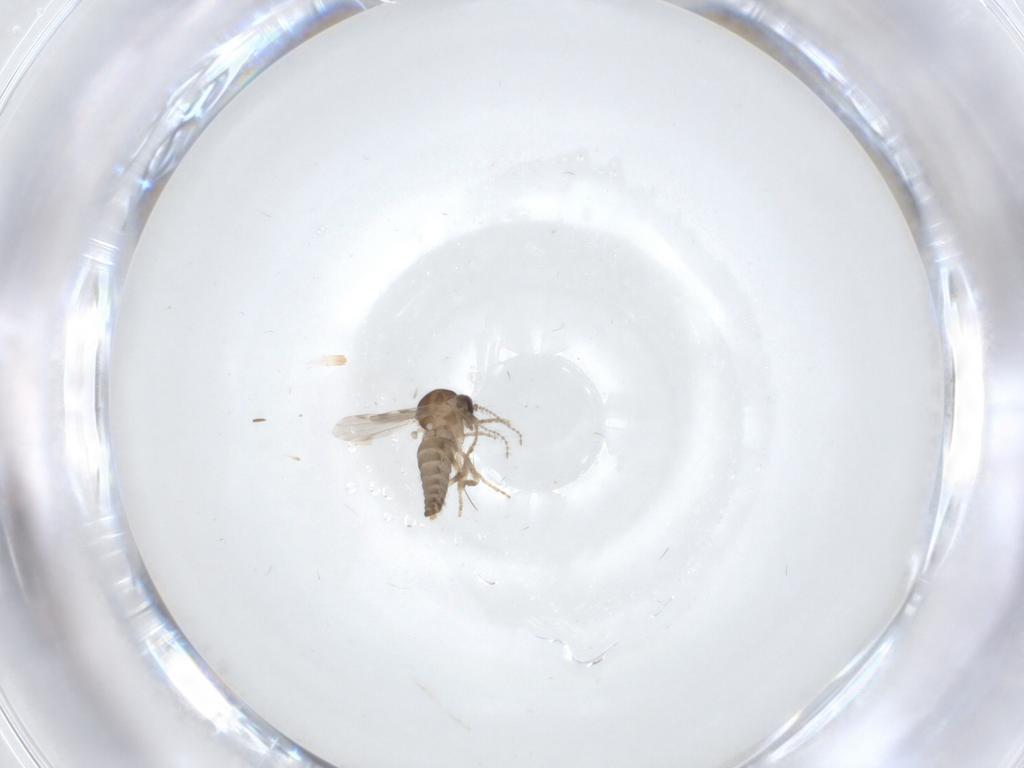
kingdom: Animalia
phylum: Arthropoda
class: Insecta
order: Diptera
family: Ceratopogonidae
